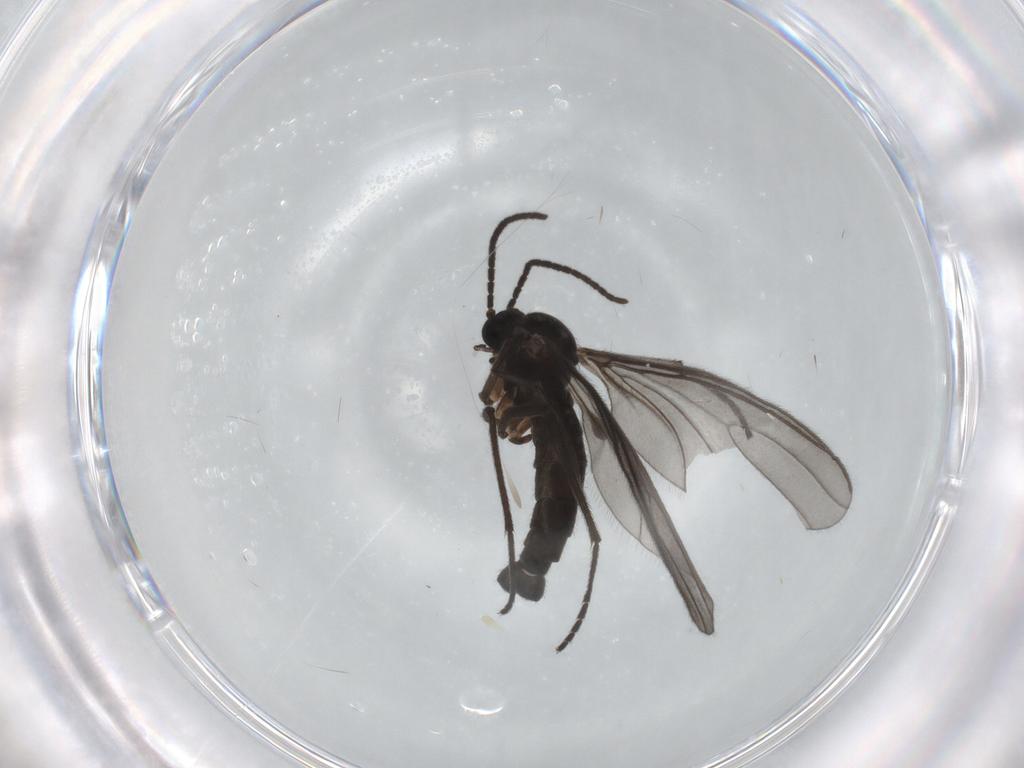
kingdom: Animalia
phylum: Arthropoda
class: Insecta
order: Diptera
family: Sciaridae
